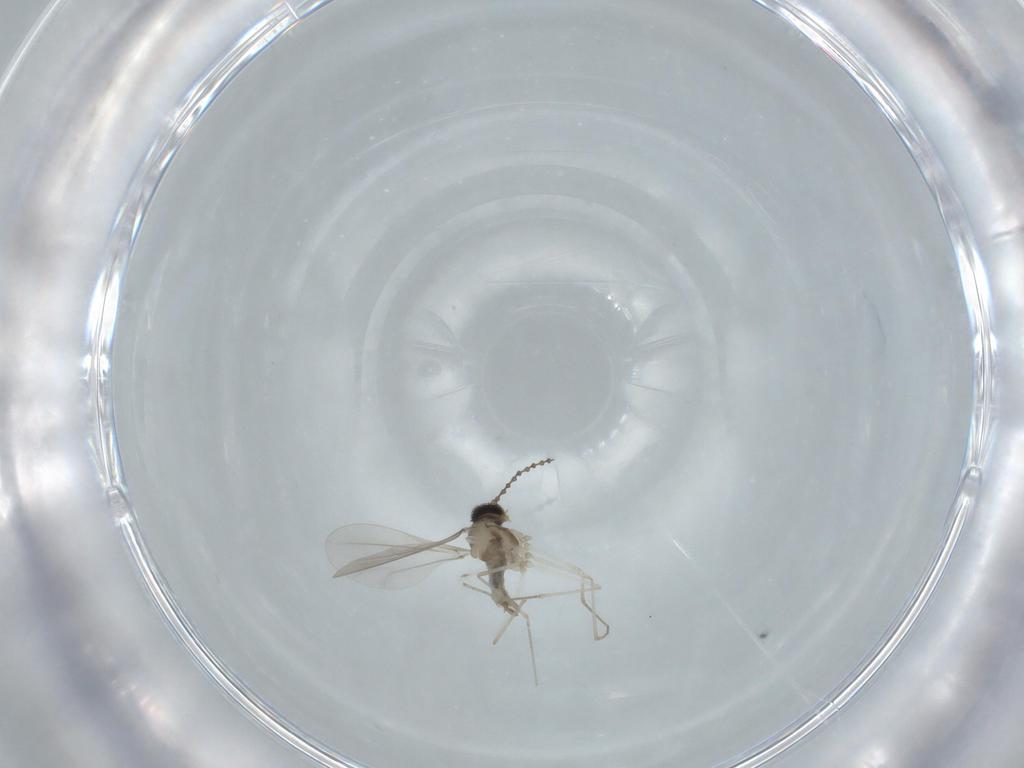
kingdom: Animalia
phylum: Arthropoda
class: Insecta
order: Diptera
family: Cecidomyiidae
